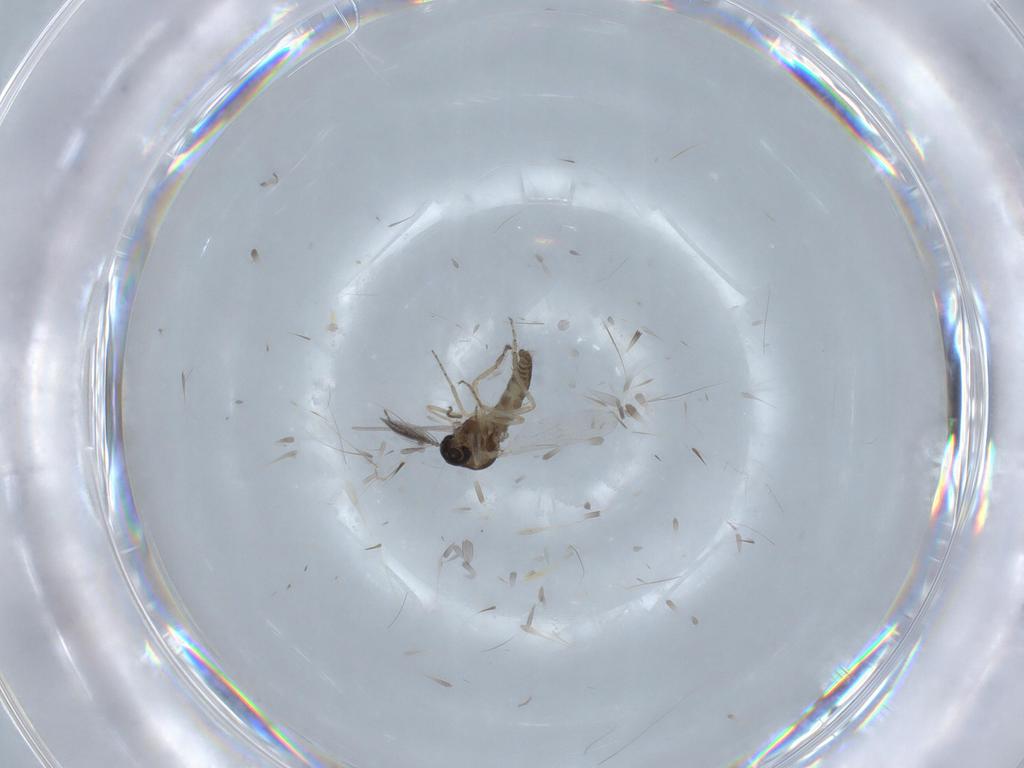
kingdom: Animalia
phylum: Arthropoda
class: Insecta
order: Diptera
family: Ceratopogonidae
